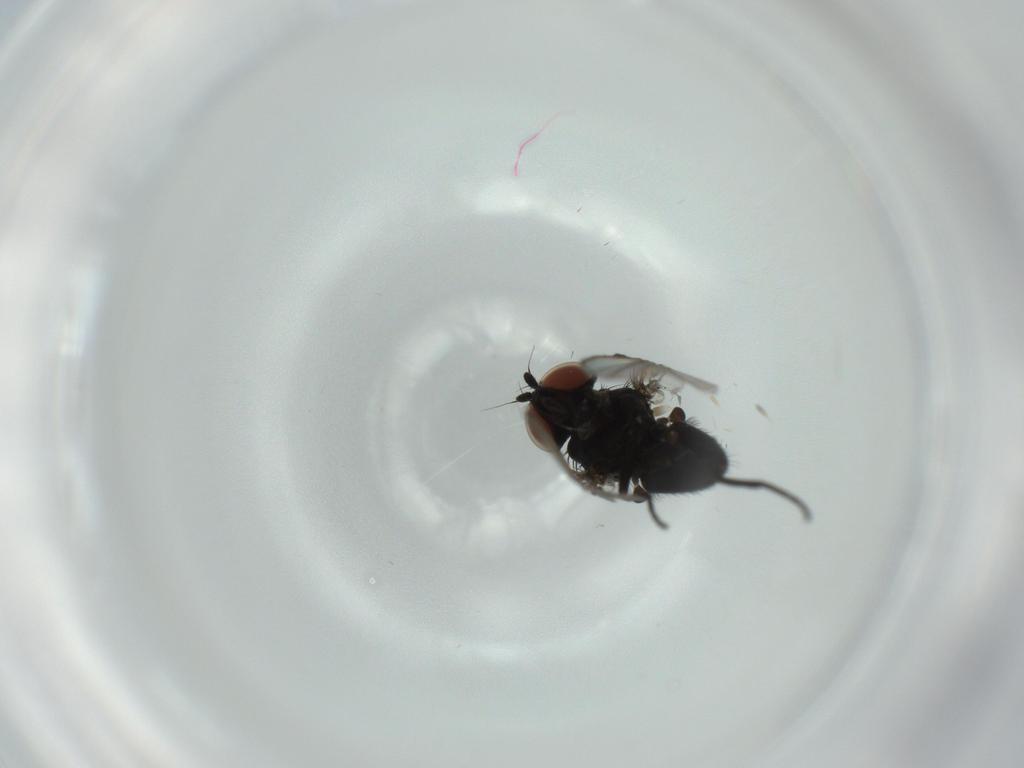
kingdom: Animalia
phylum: Arthropoda
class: Insecta
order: Diptera
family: Milichiidae
